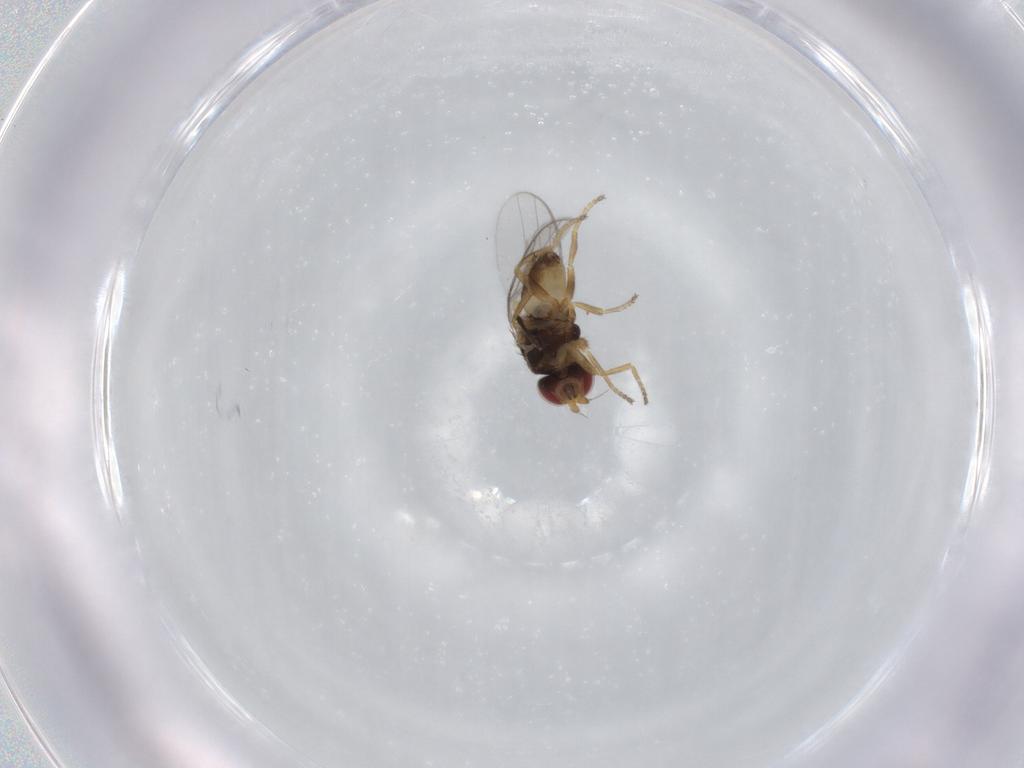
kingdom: Animalia
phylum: Arthropoda
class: Insecta
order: Diptera
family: Chloropidae
